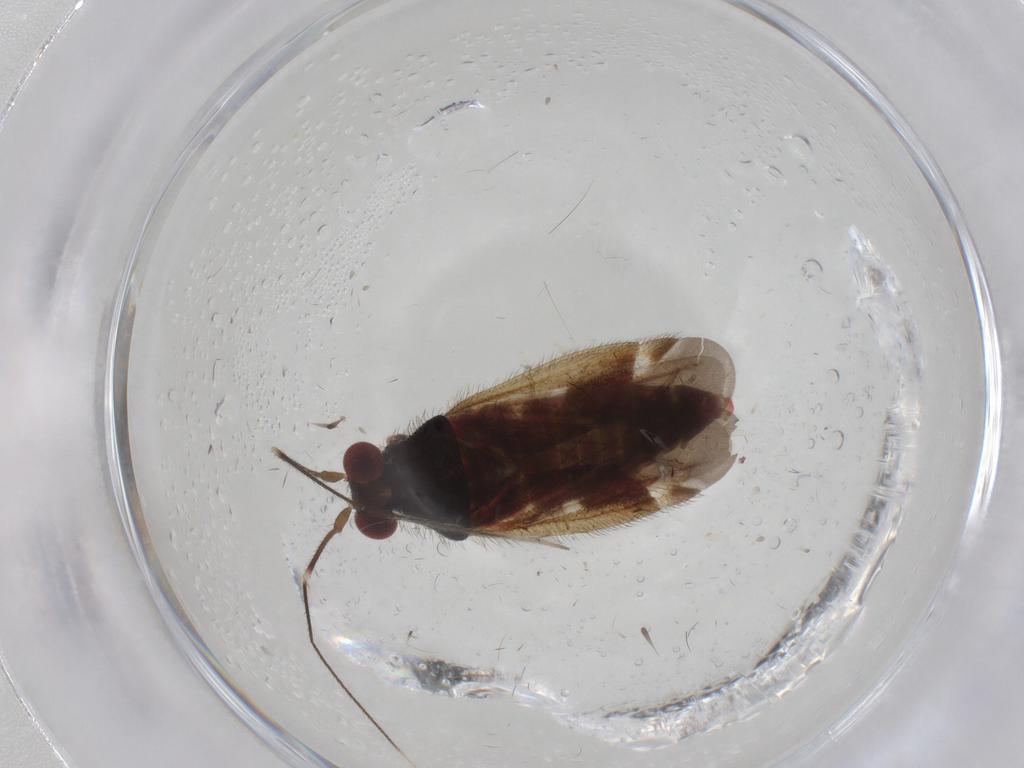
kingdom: Animalia
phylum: Arthropoda
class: Insecta
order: Hemiptera
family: Miridae
